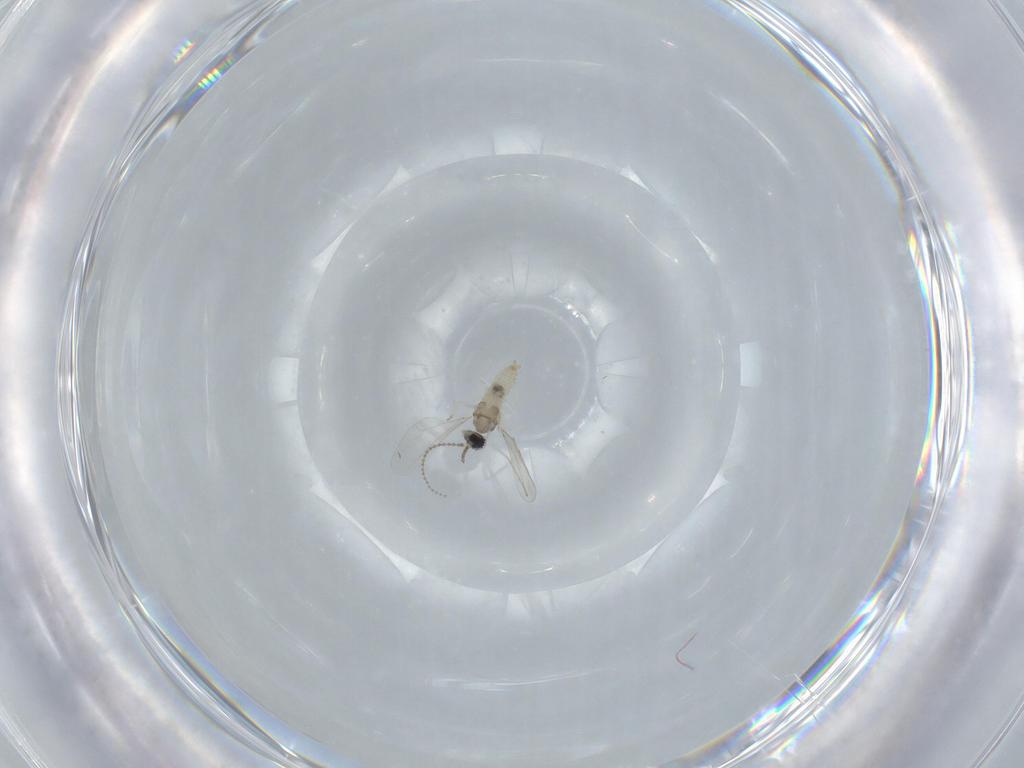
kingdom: Animalia
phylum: Arthropoda
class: Insecta
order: Diptera
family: Cecidomyiidae
